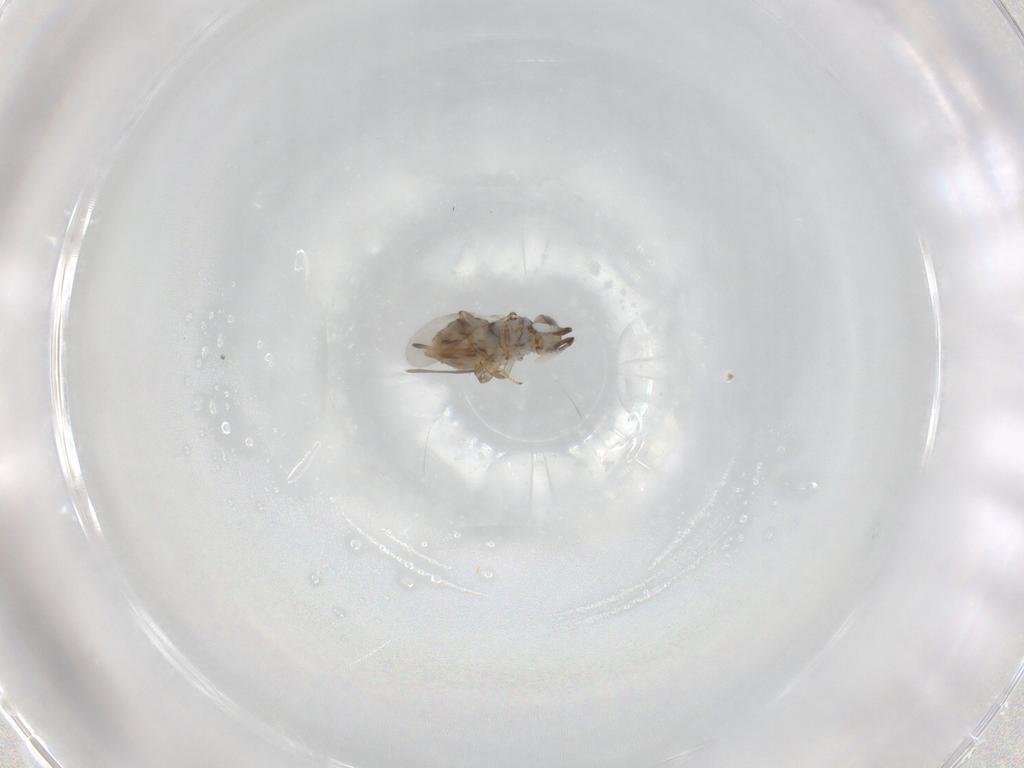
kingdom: Animalia
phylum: Arthropoda
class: Insecta
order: Hymenoptera
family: Encyrtidae
